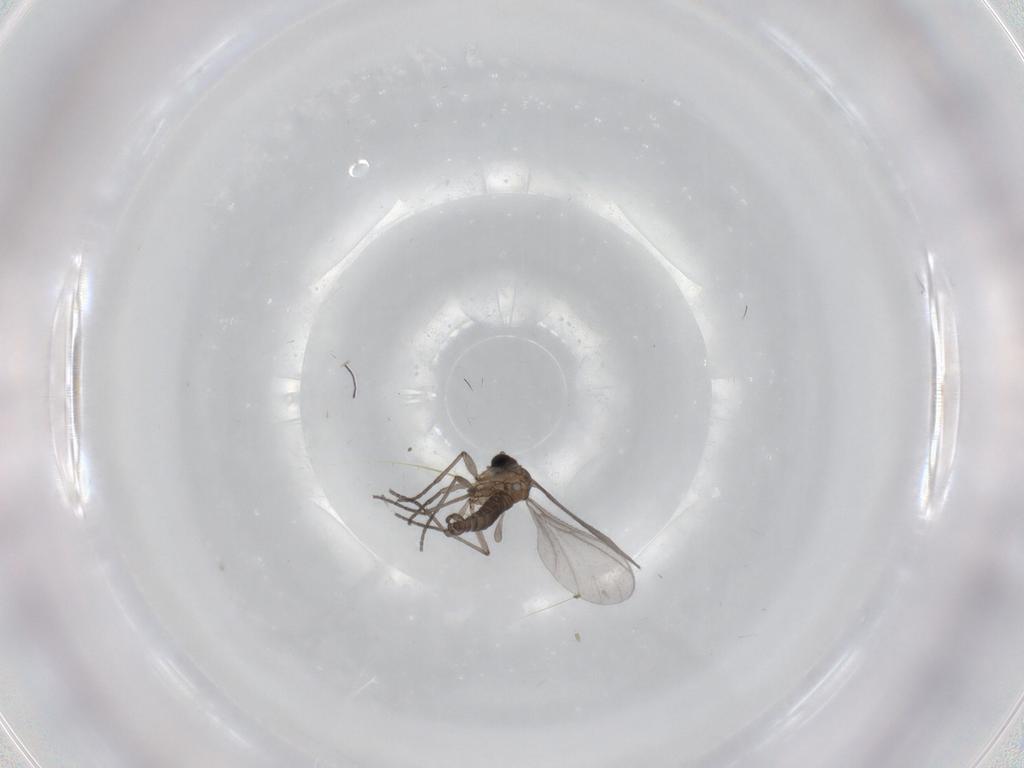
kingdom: Animalia
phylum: Arthropoda
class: Insecta
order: Diptera
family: Sciaridae
